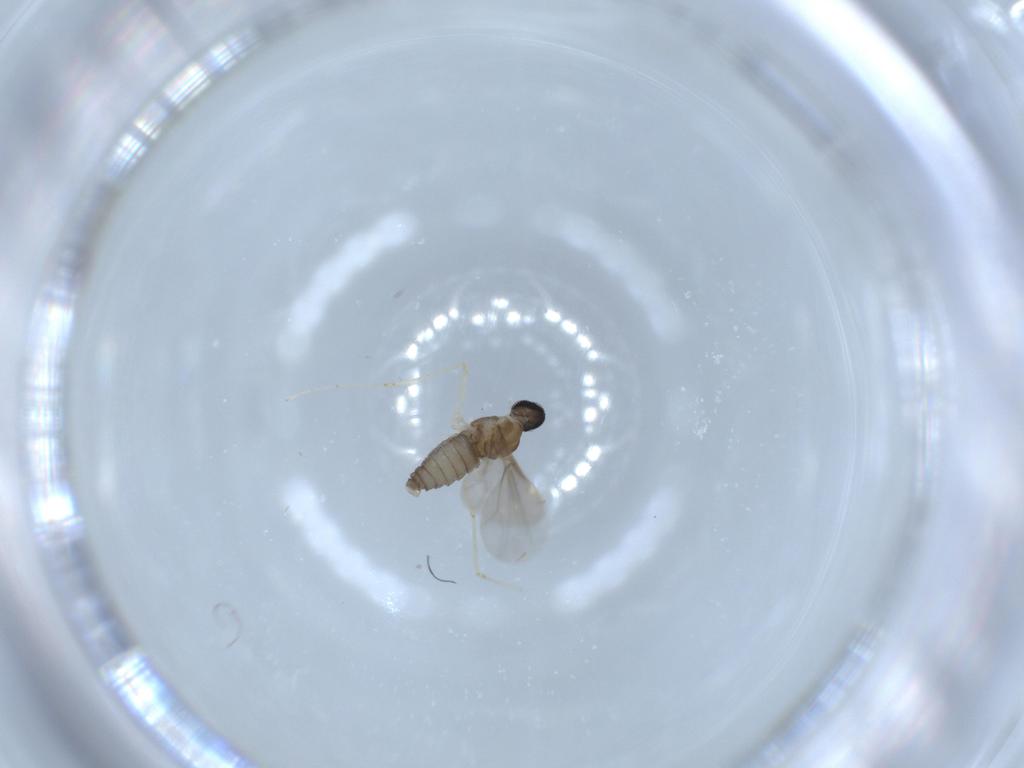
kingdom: Animalia
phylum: Arthropoda
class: Insecta
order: Diptera
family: Cecidomyiidae
